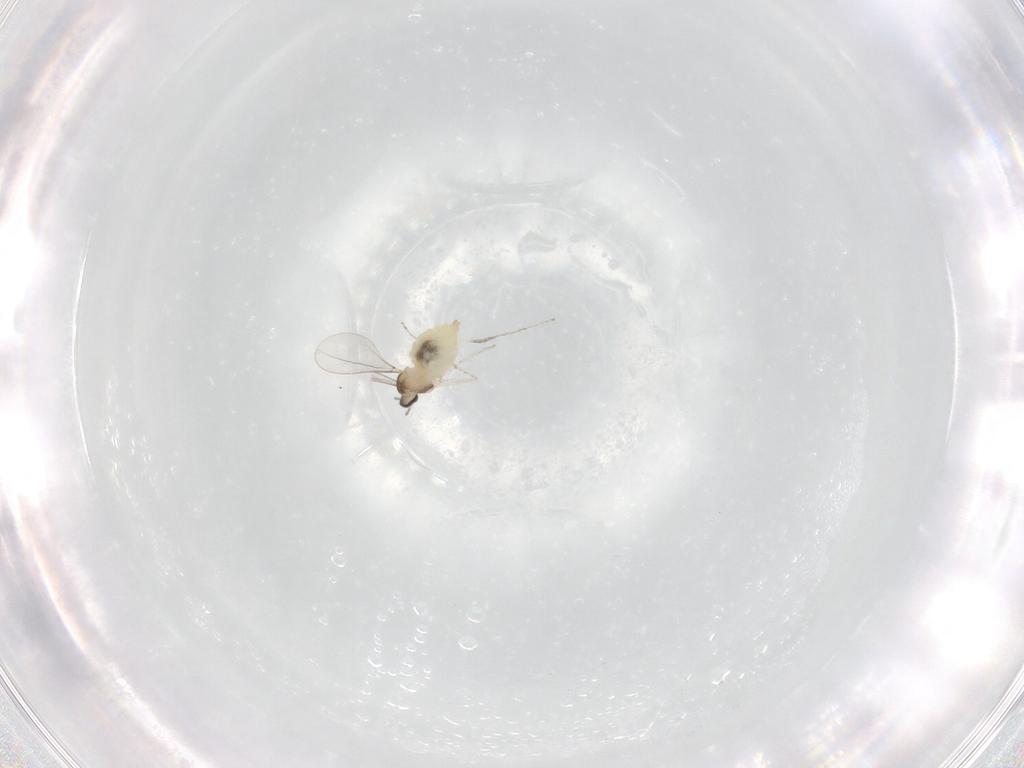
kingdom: Animalia
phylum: Arthropoda
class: Insecta
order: Diptera
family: Cecidomyiidae
